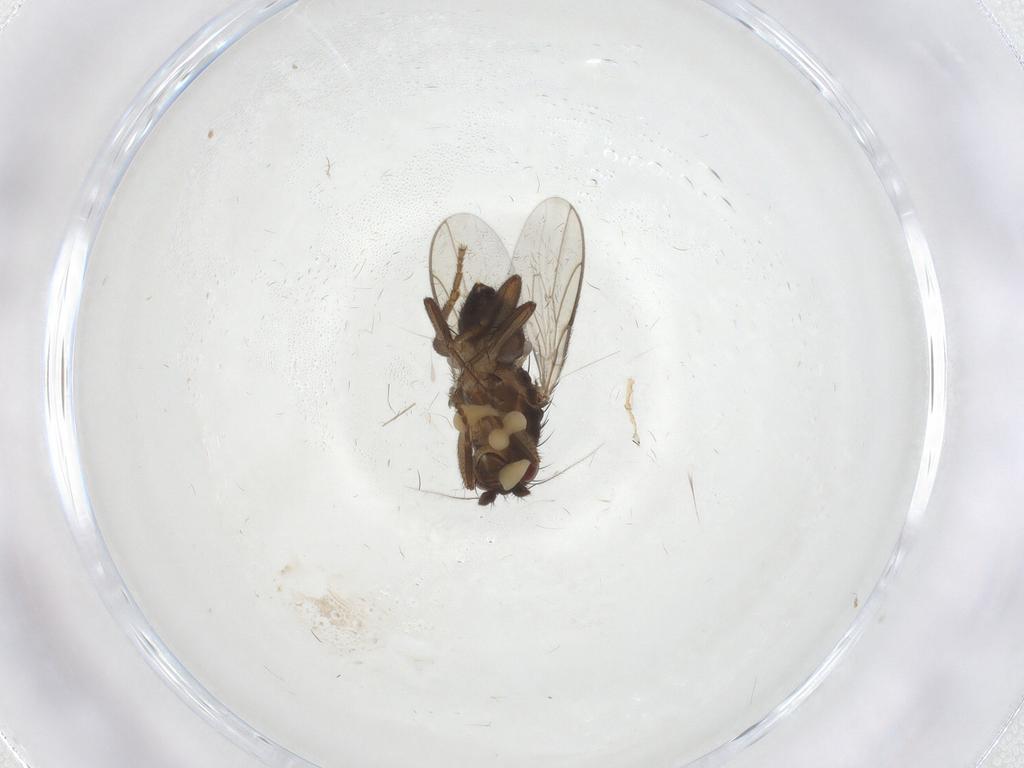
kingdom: Animalia
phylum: Arthropoda
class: Insecta
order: Diptera
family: Sphaeroceridae
